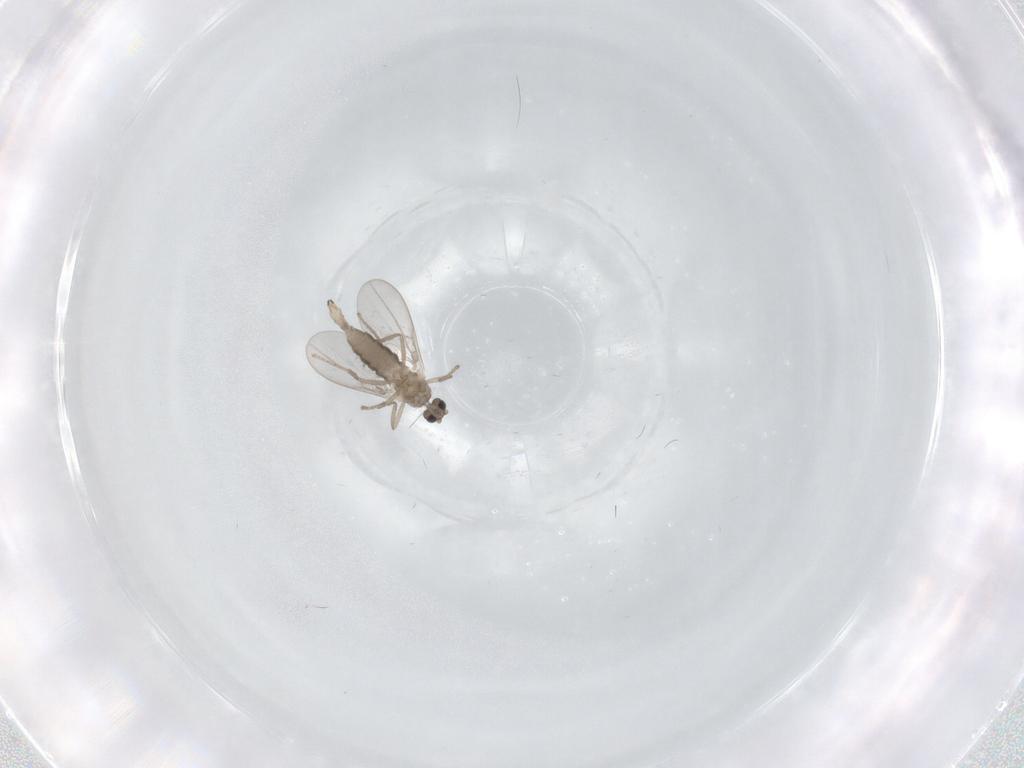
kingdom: Animalia
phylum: Arthropoda
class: Insecta
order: Diptera
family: Cecidomyiidae
